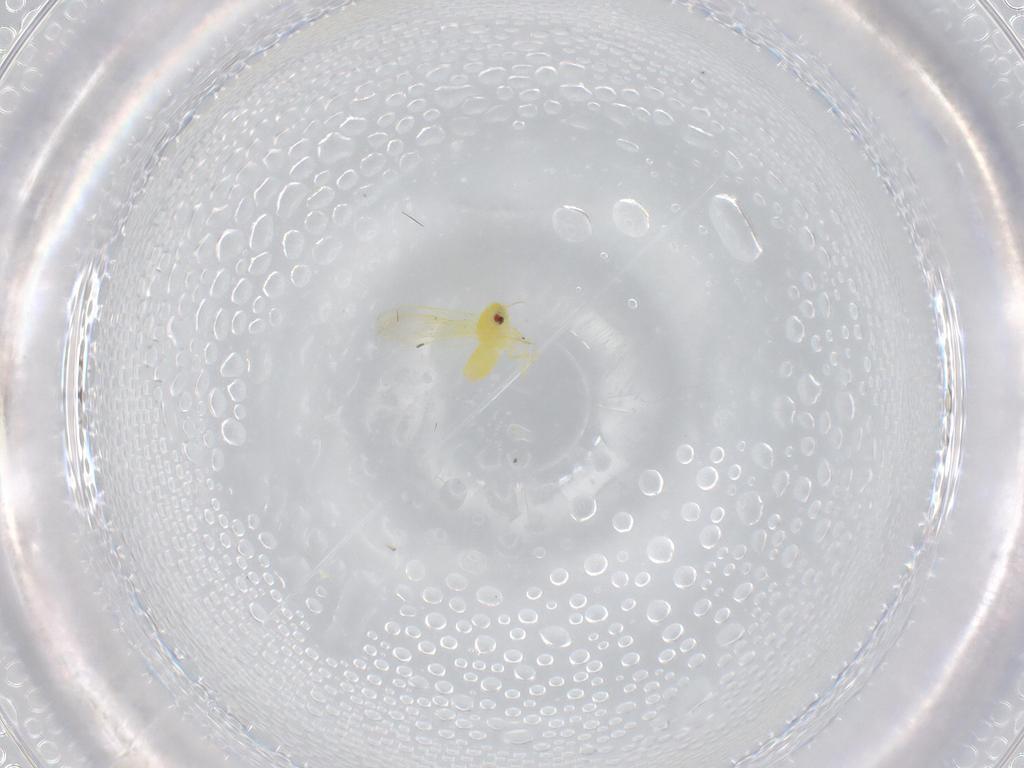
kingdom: Animalia
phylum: Arthropoda
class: Insecta
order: Hemiptera
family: Aleyrodidae
